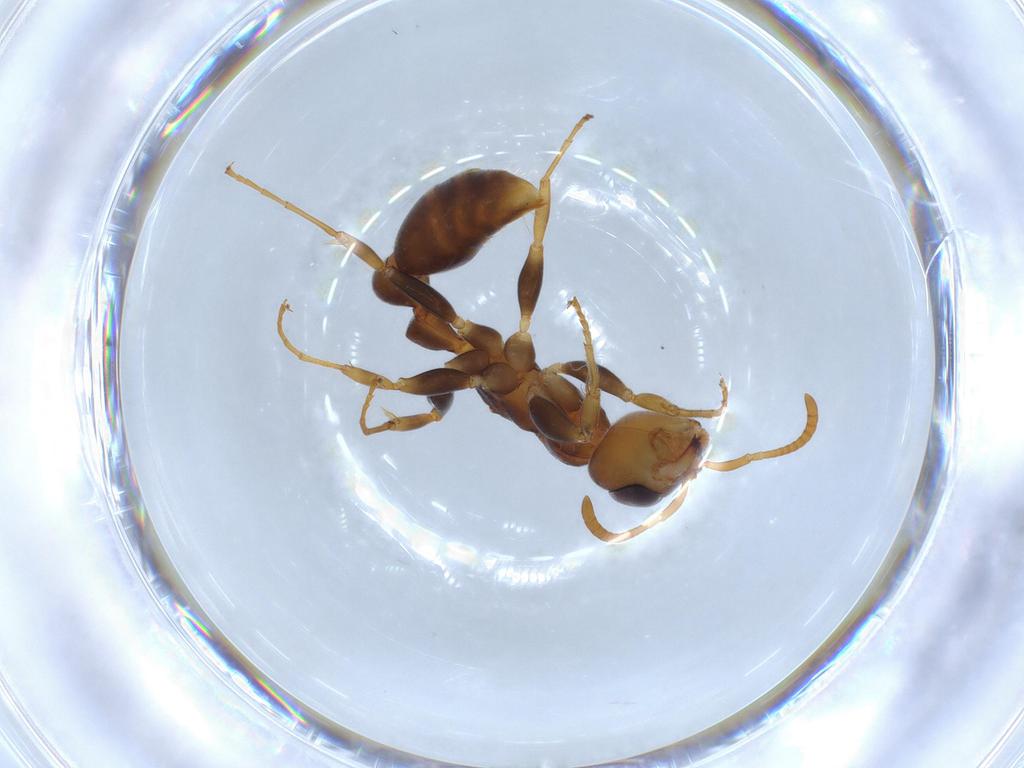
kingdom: Animalia
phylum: Arthropoda
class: Insecta
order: Hymenoptera
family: Formicidae
